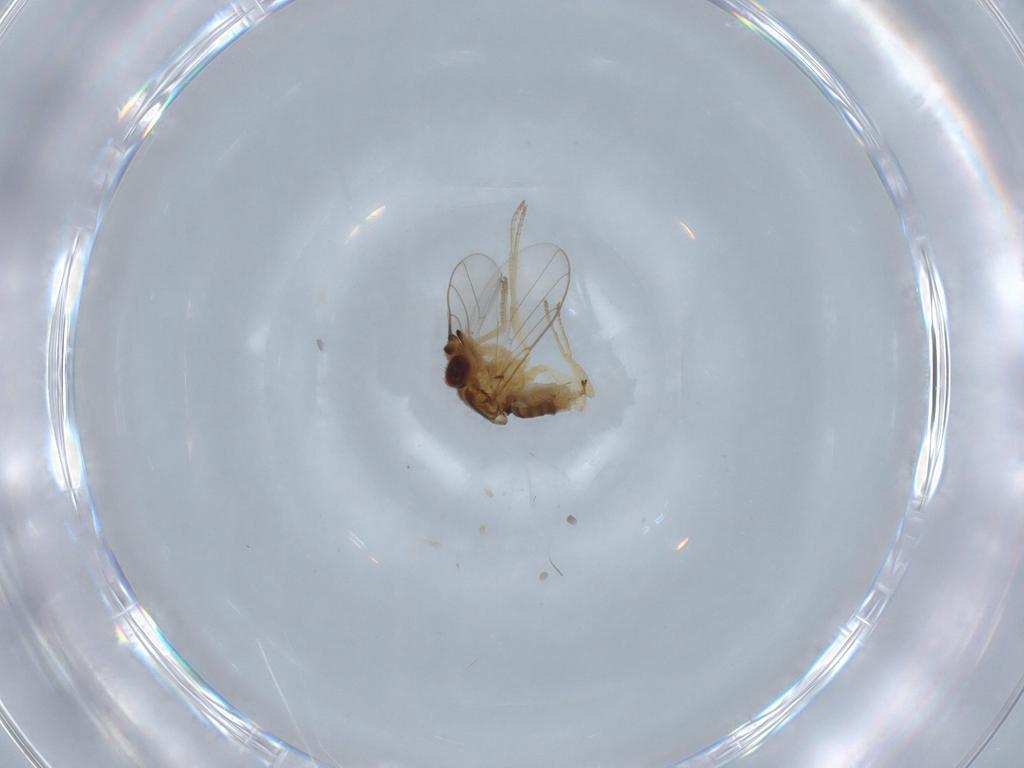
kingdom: Animalia
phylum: Arthropoda
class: Insecta
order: Diptera
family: Chloropidae
